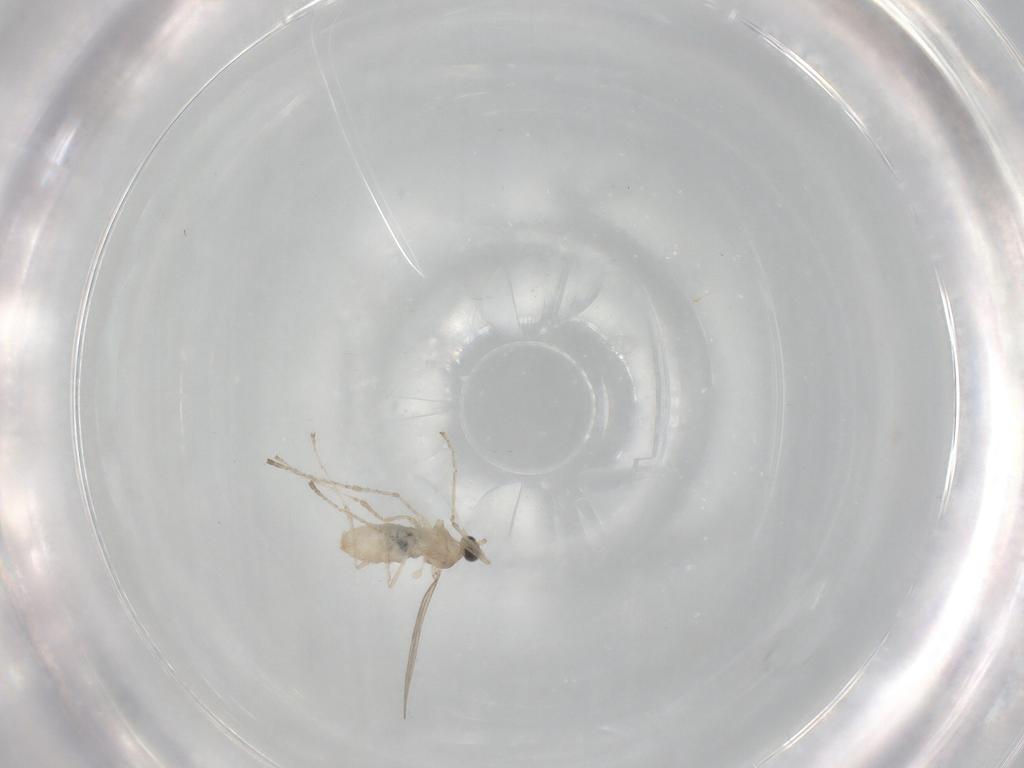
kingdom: Animalia
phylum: Arthropoda
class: Insecta
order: Diptera
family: Cecidomyiidae
